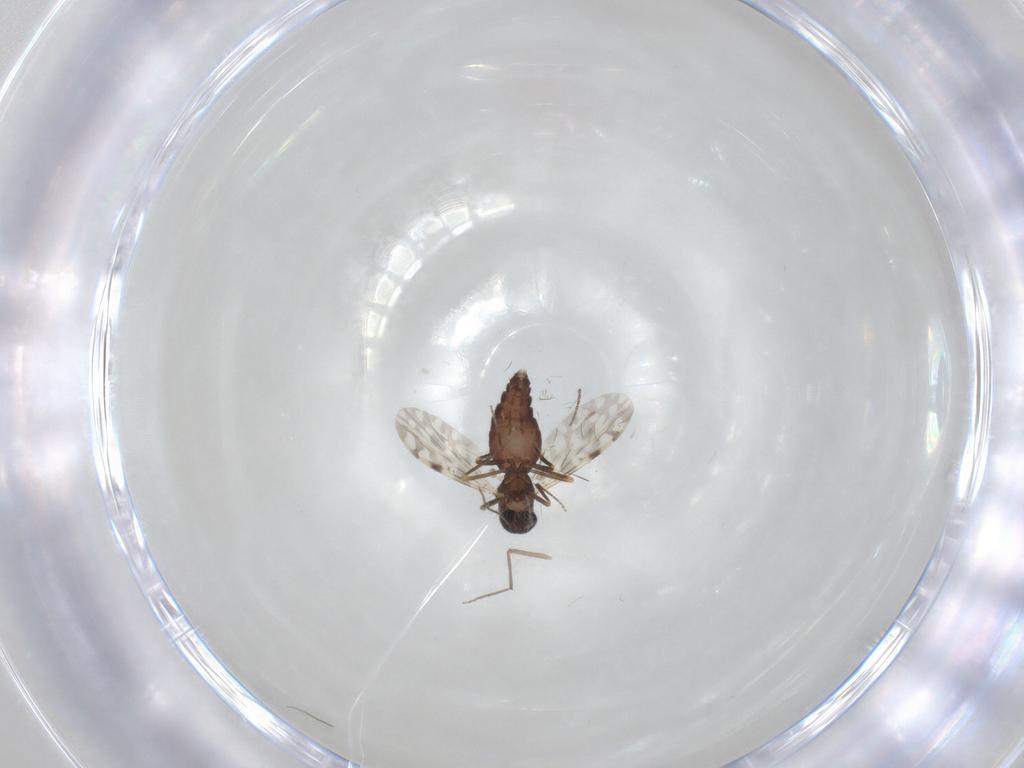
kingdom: Animalia
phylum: Arthropoda
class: Insecta
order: Diptera
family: Ceratopogonidae
